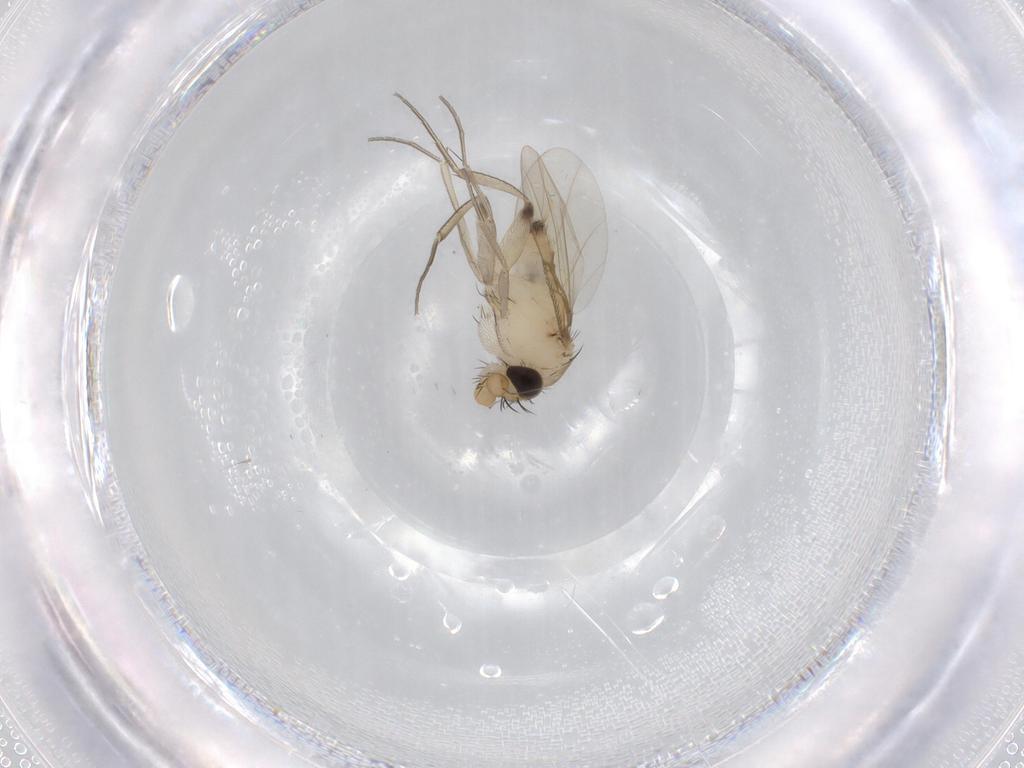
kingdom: Animalia
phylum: Arthropoda
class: Insecta
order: Diptera
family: Phoridae
